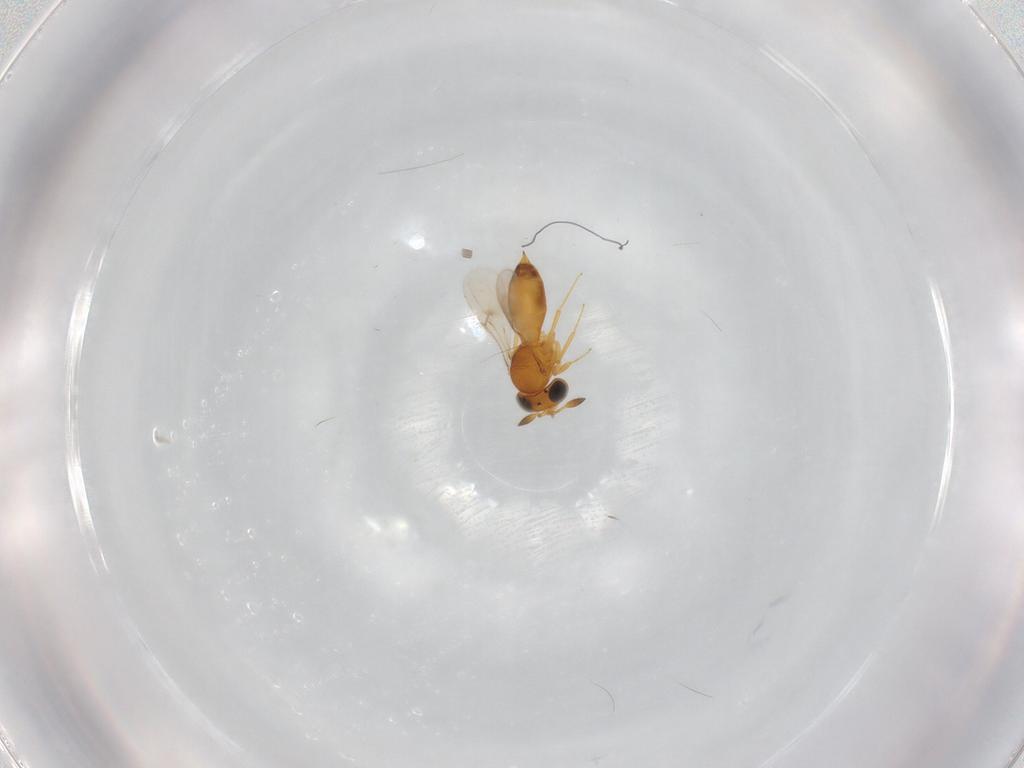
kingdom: Animalia
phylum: Arthropoda
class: Insecta
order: Hymenoptera
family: Scelionidae
